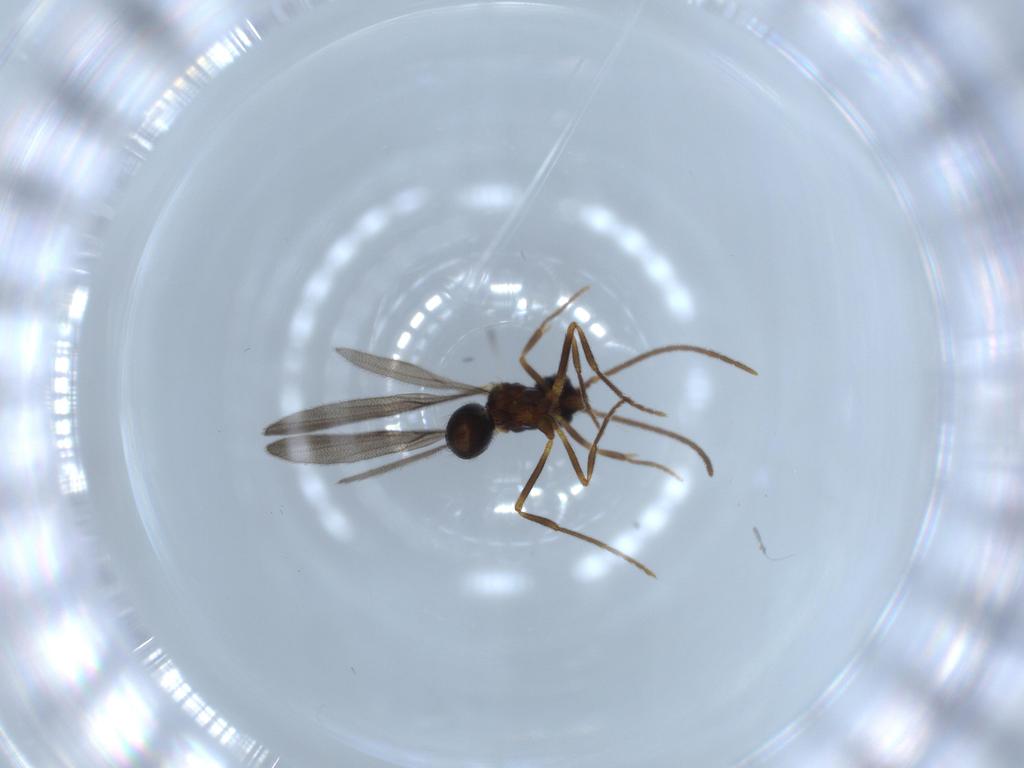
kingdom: Animalia
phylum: Arthropoda
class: Insecta
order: Hymenoptera
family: Formicidae
